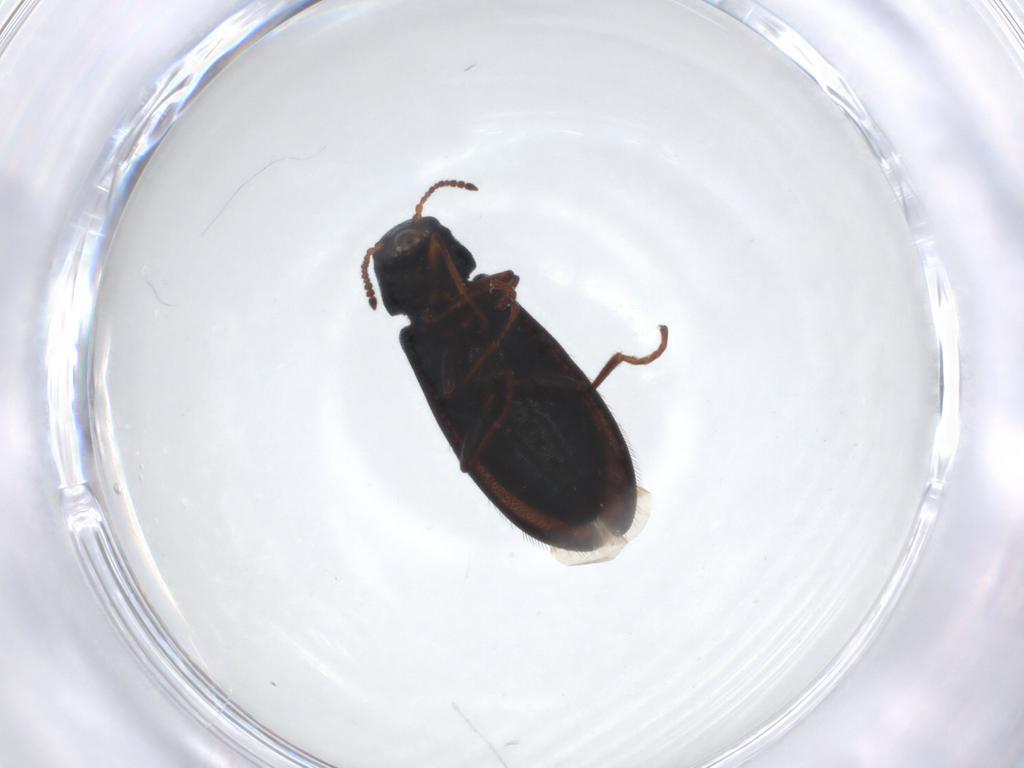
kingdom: Animalia
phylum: Arthropoda
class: Insecta
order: Coleoptera
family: Melyridae
